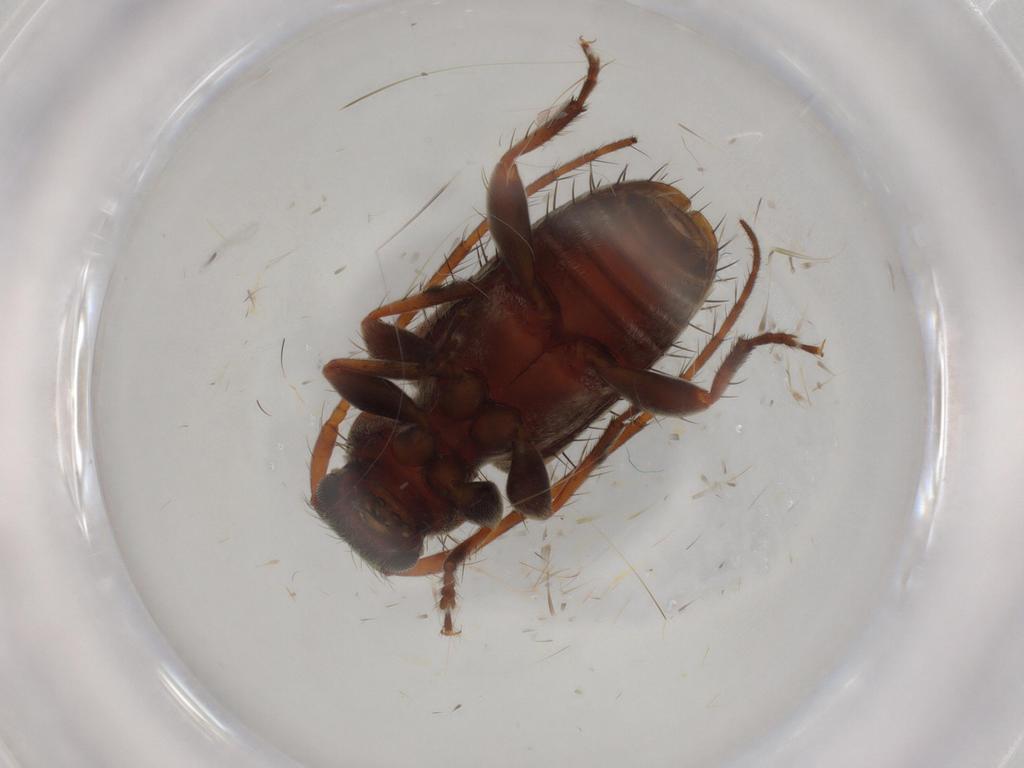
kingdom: Animalia
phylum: Arthropoda
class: Insecta
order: Coleoptera
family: Cerambycidae
